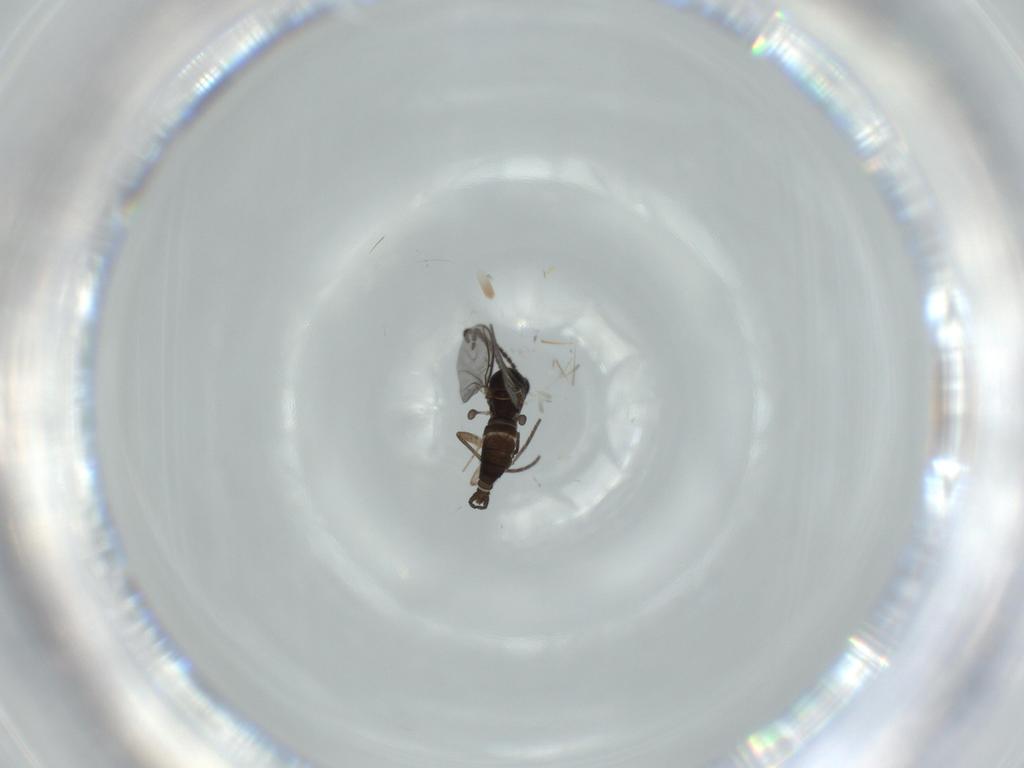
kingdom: Animalia
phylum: Arthropoda
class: Insecta
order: Diptera
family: Sciaridae
